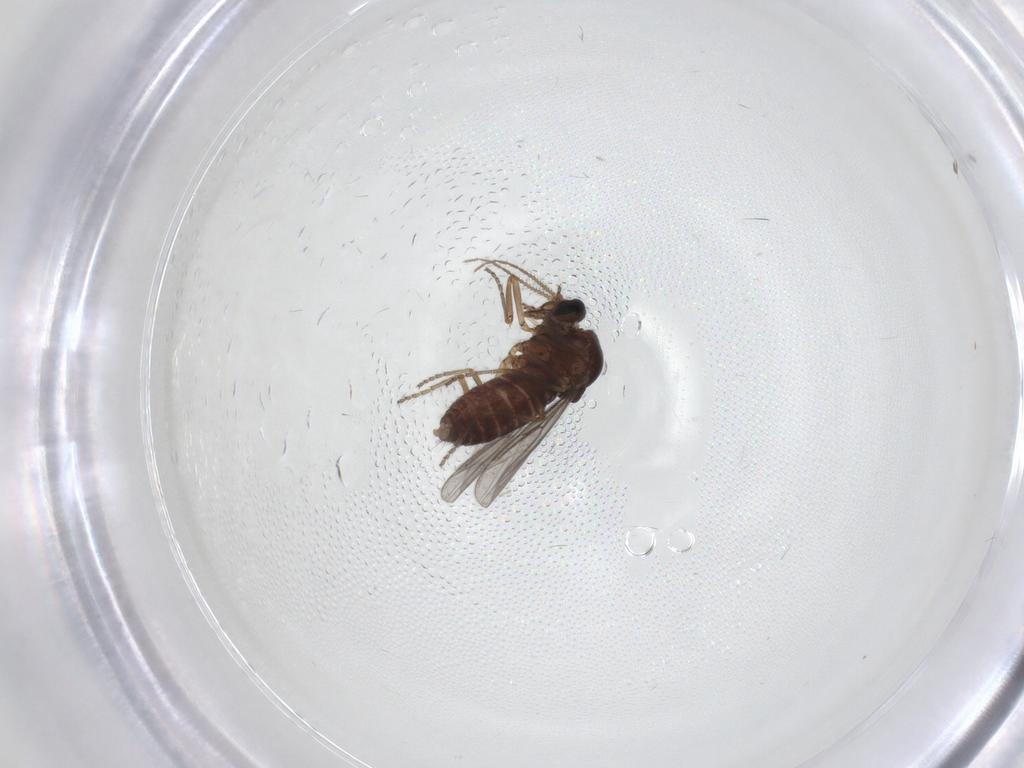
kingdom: Animalia
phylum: Arthropoda
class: Insecta
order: Diptera
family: Ceratopogonidae
